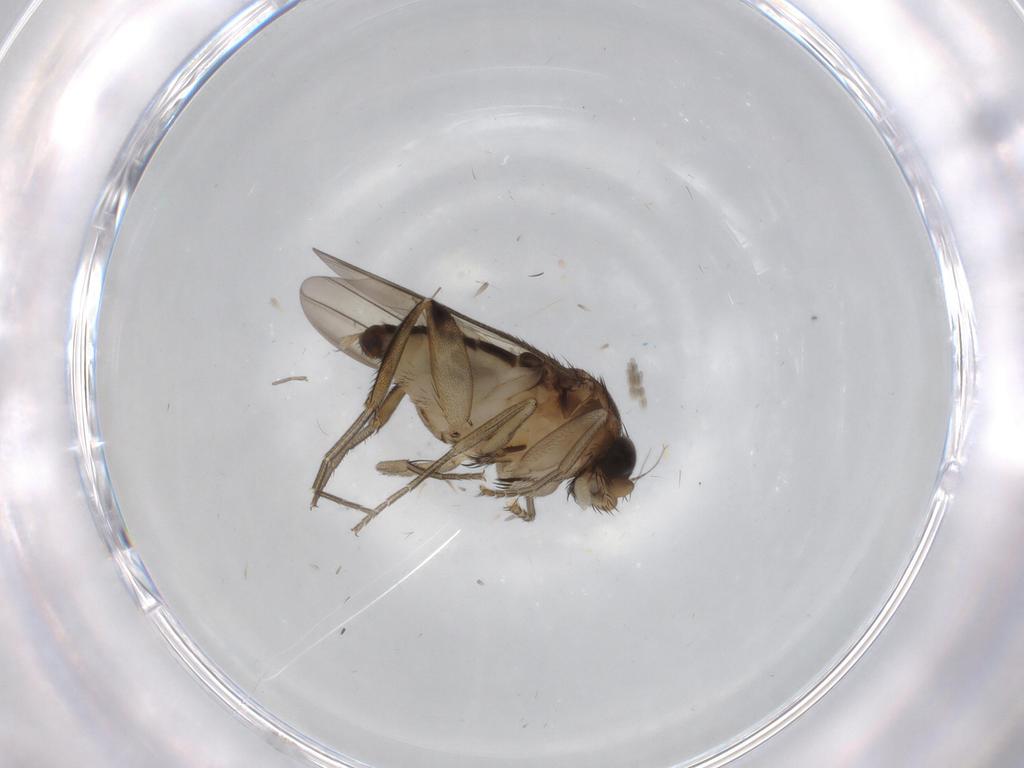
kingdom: Animalia
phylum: Arthropoda
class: Insecta
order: Diptera
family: Phoridae
